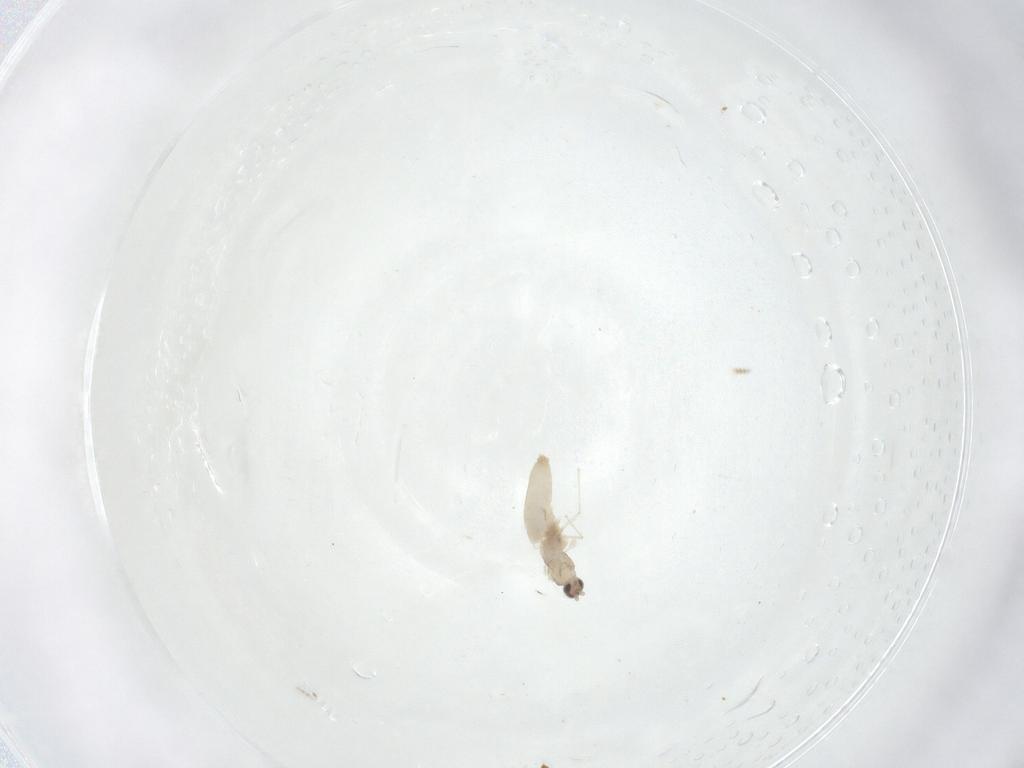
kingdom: Animalia
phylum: Arthropoda
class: Insecta
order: Diptera
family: Cecidomyiidae
